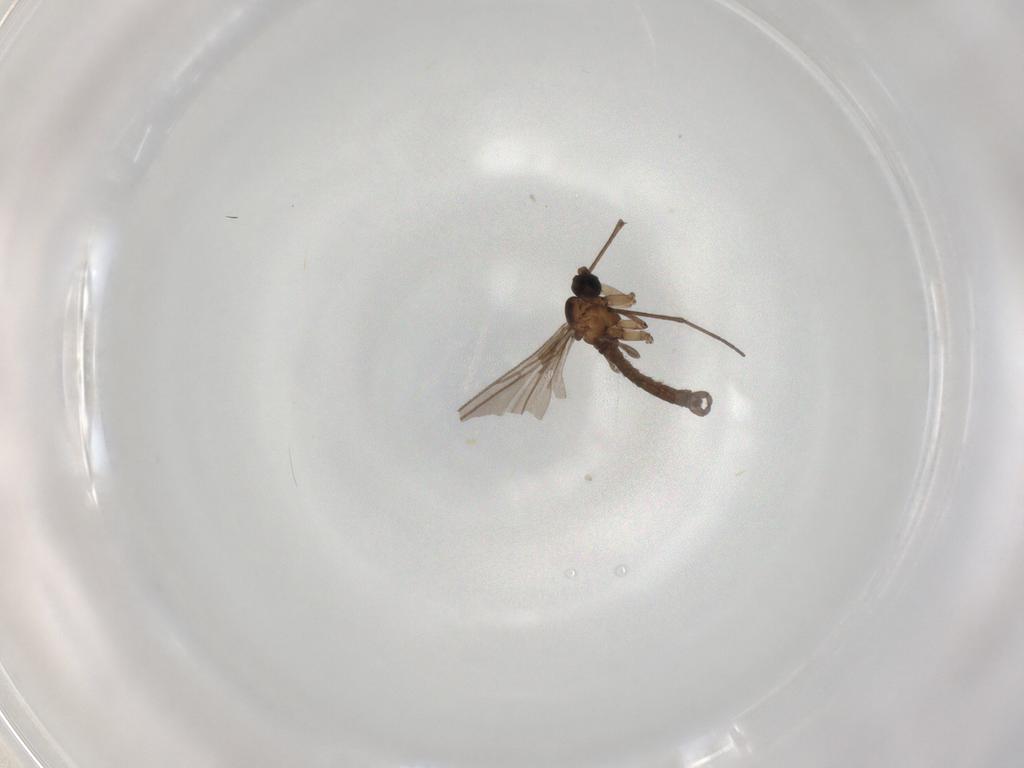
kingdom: Animalia
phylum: Arthropoda
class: Insecta
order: Diptera
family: Sciaridae
